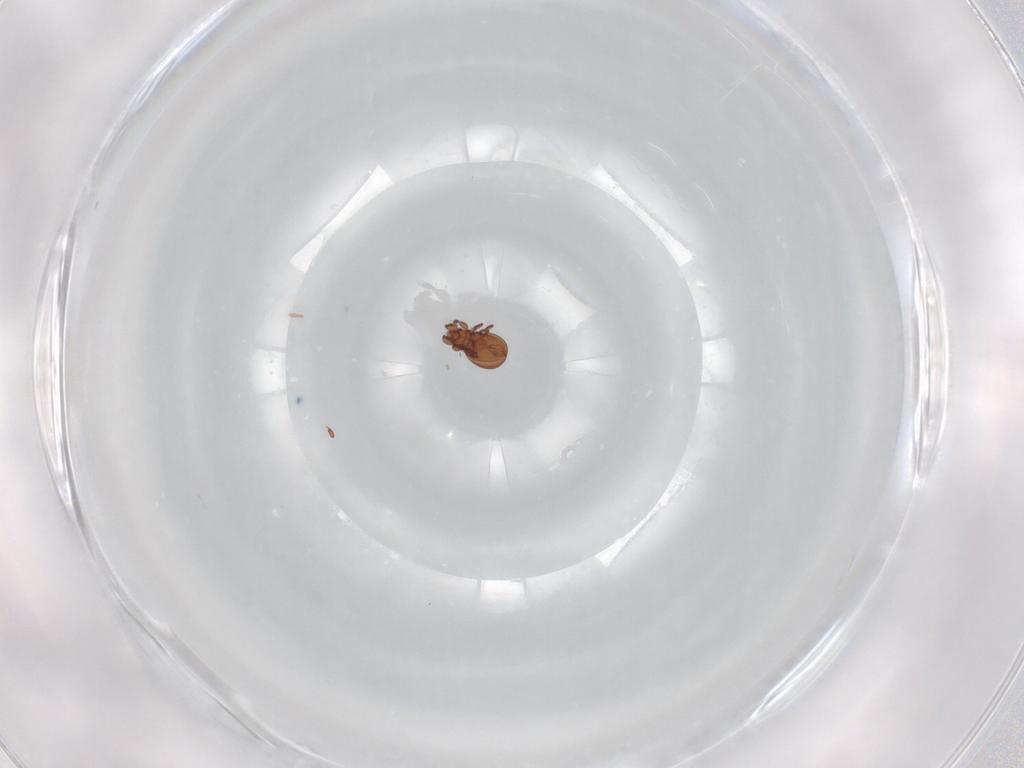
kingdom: Animalia
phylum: Arthropoda
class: Arachnida
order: Sarcoptiformes
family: Eremaeidae
